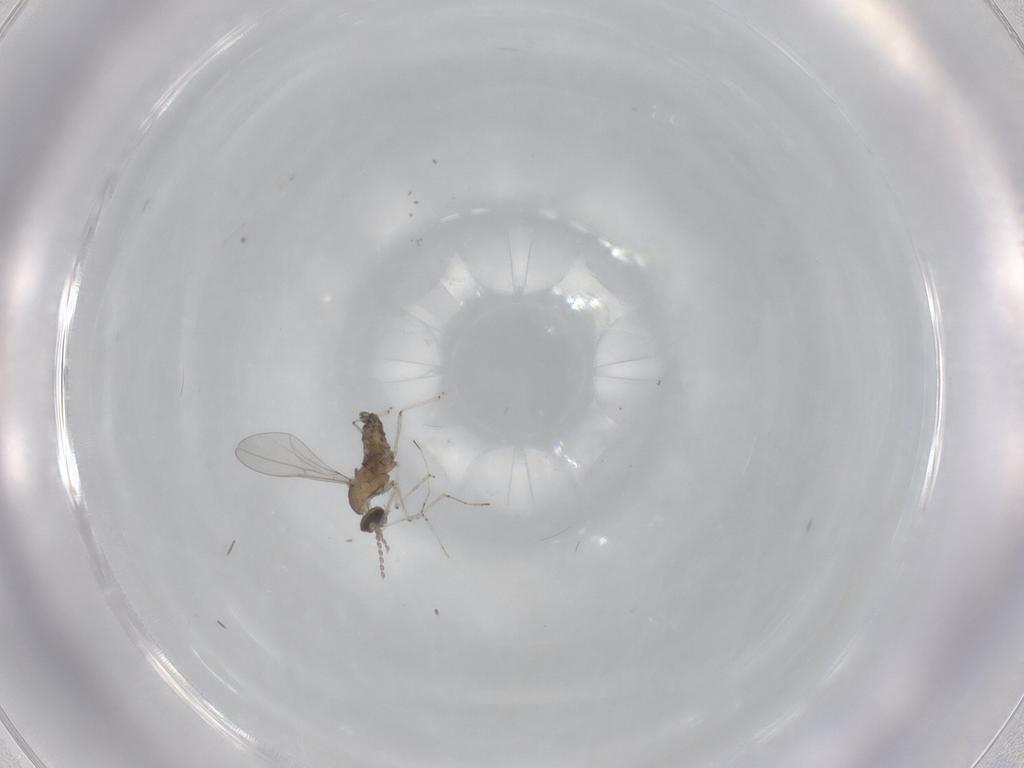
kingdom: Animalia
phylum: Arthropoda
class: Insecta
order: Diptera
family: Cecidomyiidae
